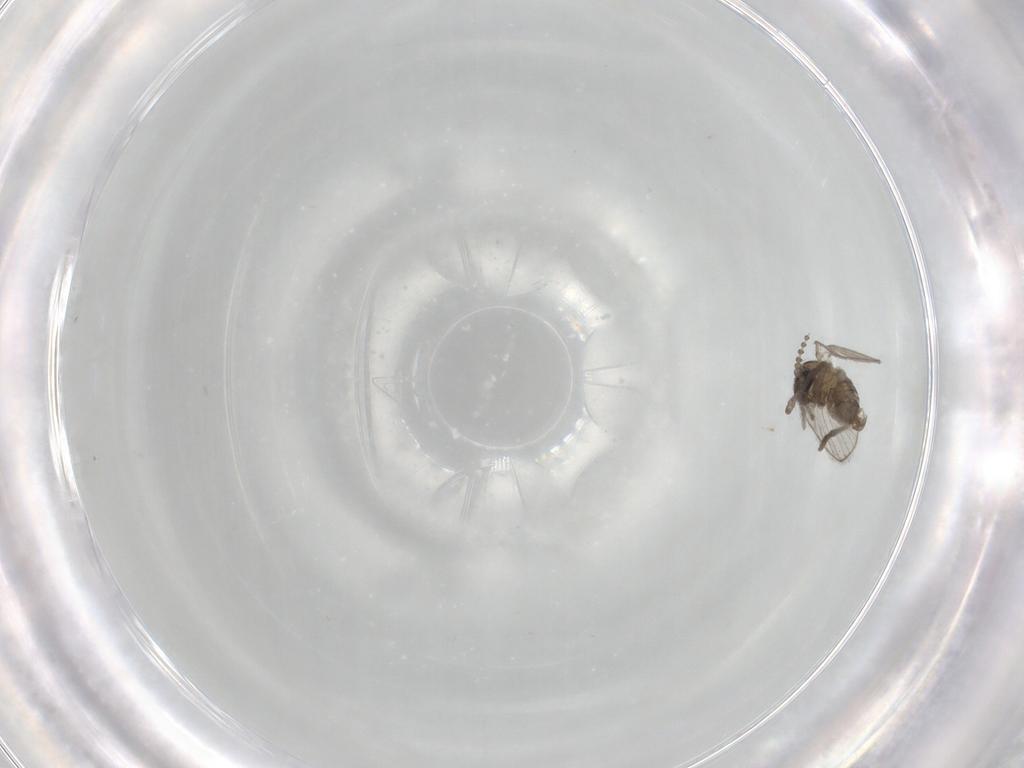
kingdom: Animalia
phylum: Arthropoda
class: Insecta
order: Diptera
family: Psychodidae
